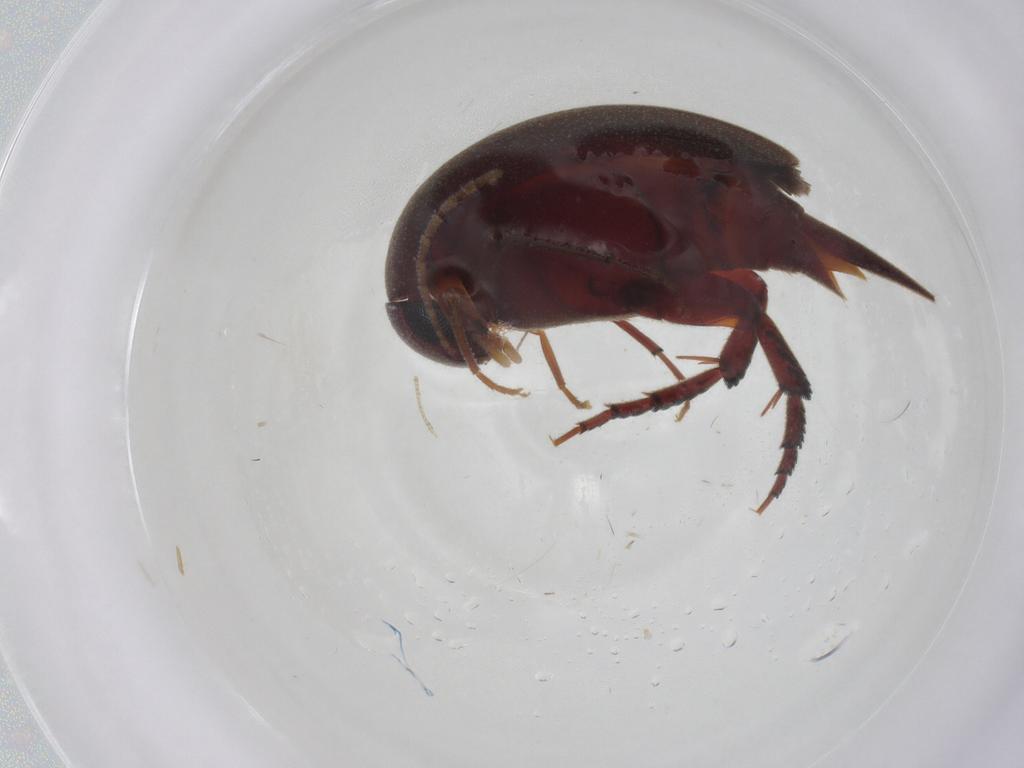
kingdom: Animalia
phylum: Arthropoda
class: Insecta
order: Coleoptera
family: Mordellidae
